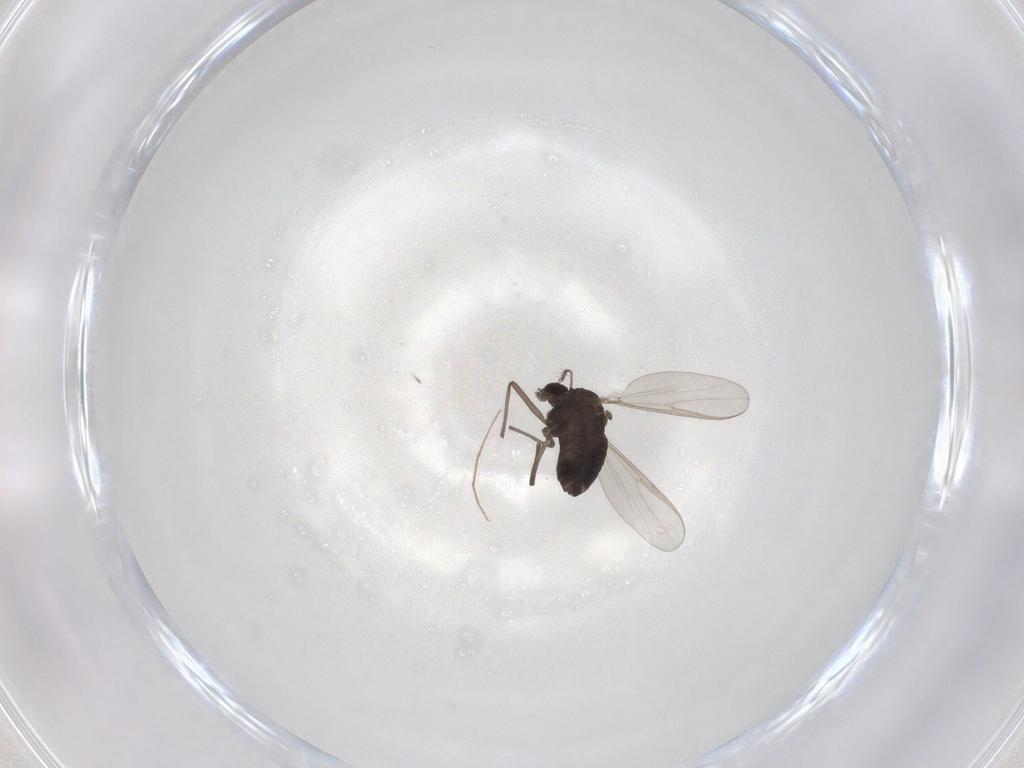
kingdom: Animalia
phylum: Arthropoda
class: Insecta
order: Diptera
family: Chironomidae
